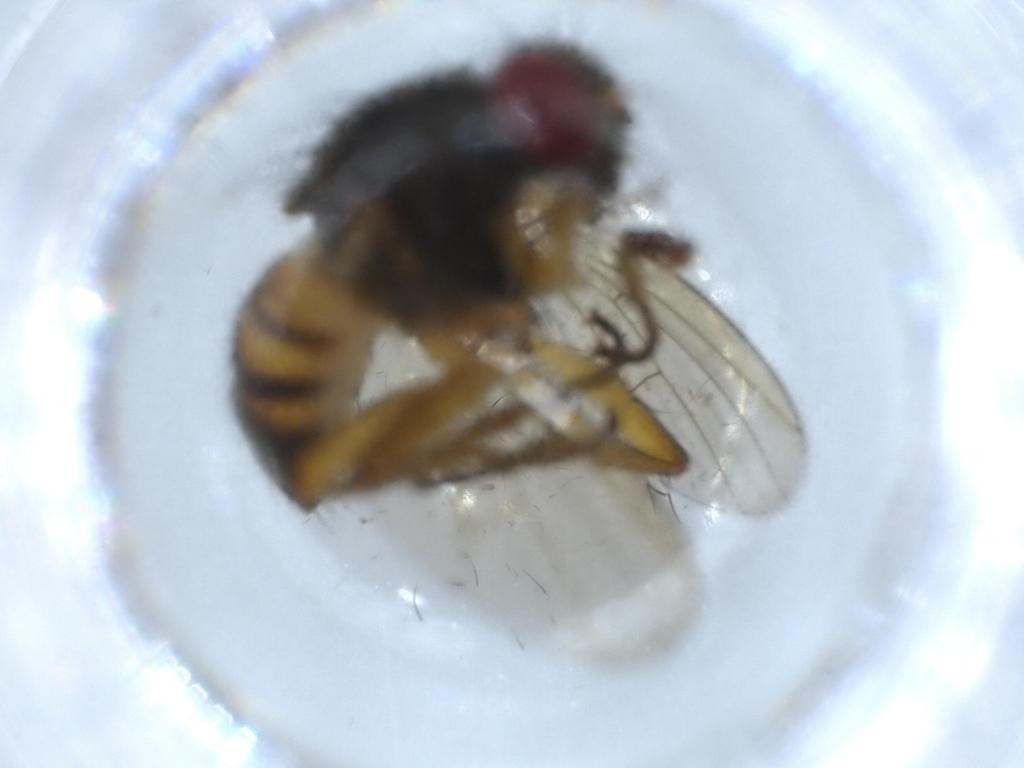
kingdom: Animalia
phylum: Arthropoda
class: Insecta
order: Diptera
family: Muscidae
